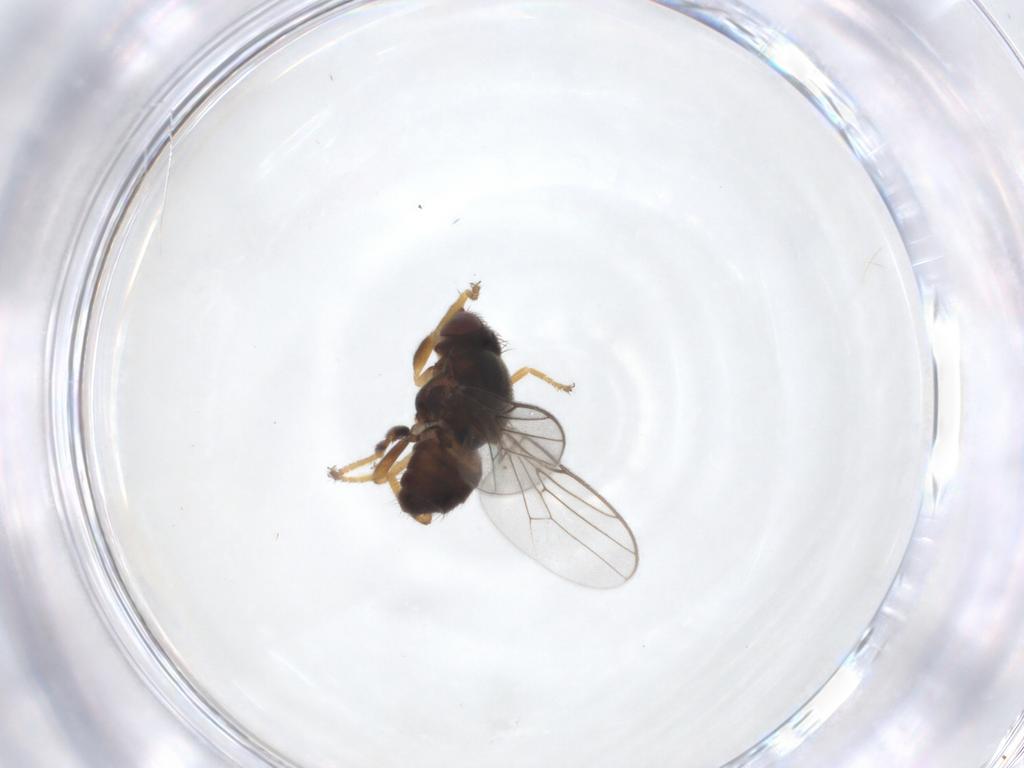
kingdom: Animalia
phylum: Arthropoda
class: Insecta
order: Diptera
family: Chloropidae
